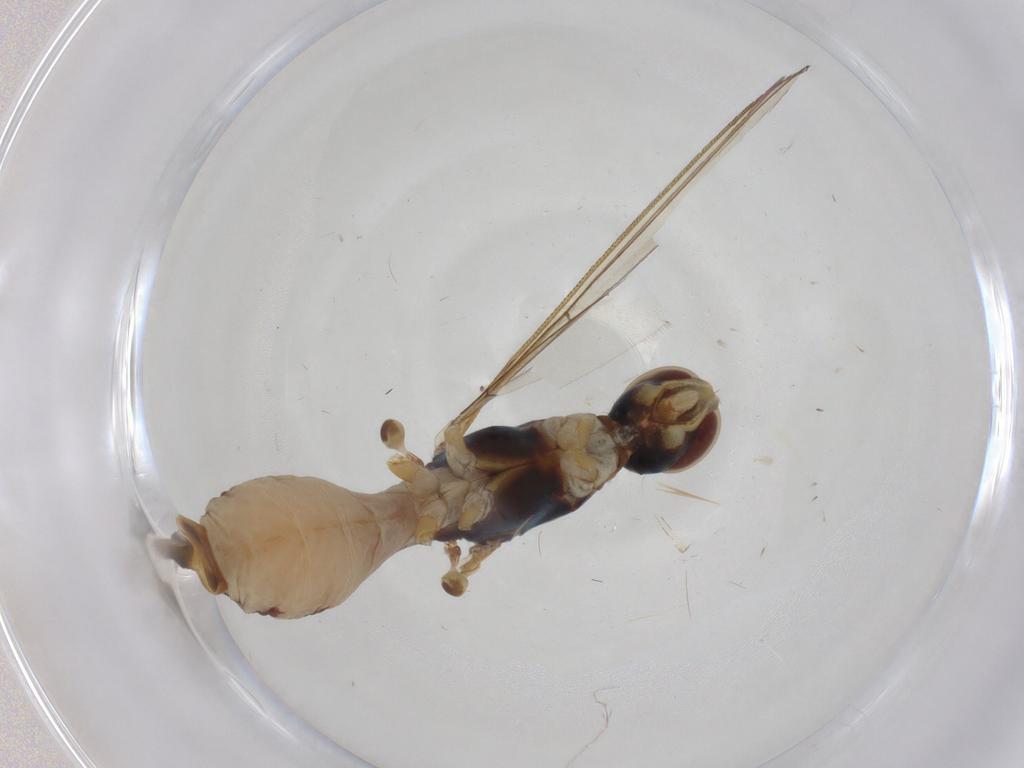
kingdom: Animalia
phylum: Arthropoda
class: Insecta
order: Diptera
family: Micropezidae
